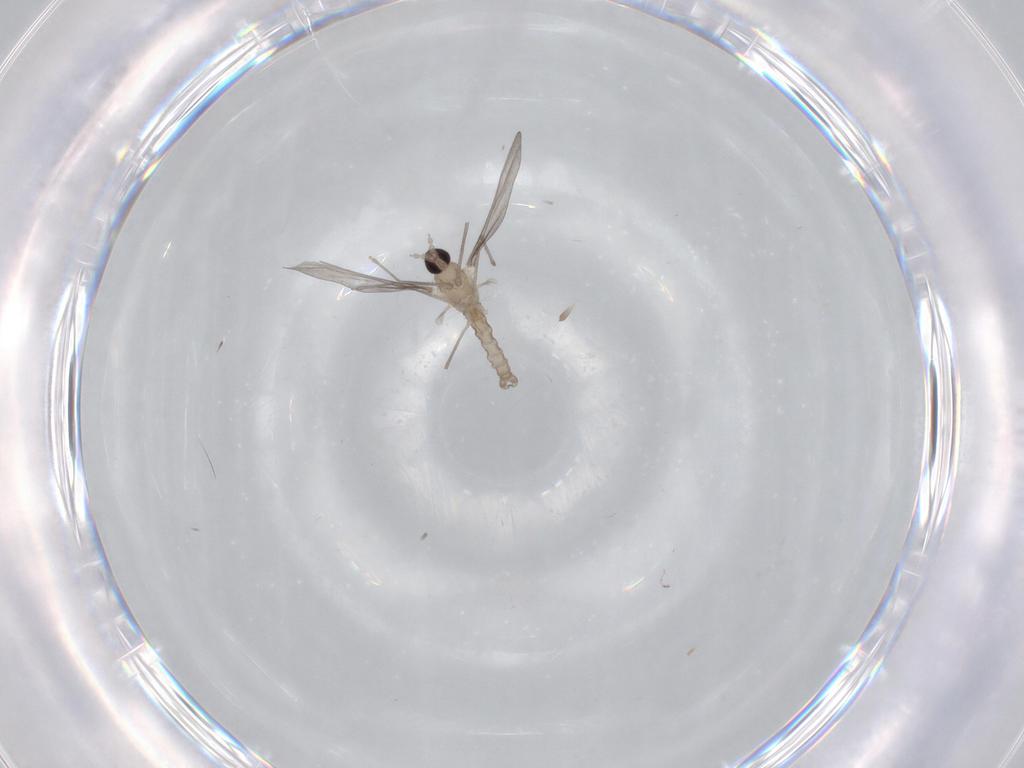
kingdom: Animalia
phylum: Arthropoda
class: Insecta
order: Diptera
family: Cecidomyiidae
